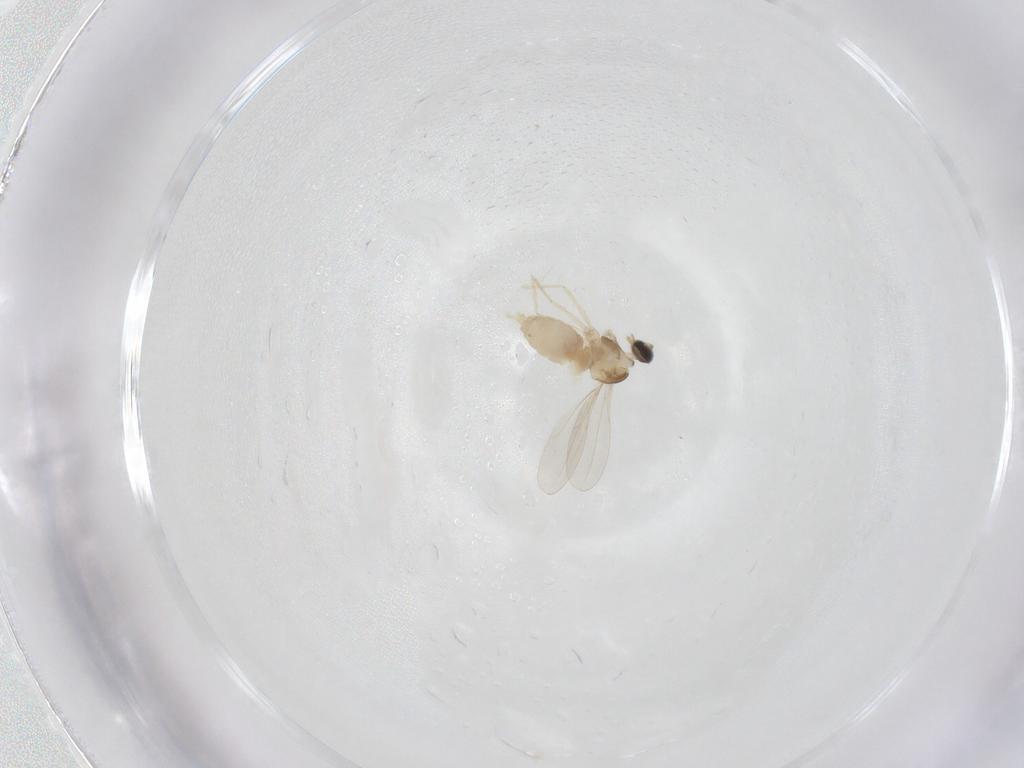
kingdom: Animalia
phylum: Arthropoda
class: Insecta
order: Diptera
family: Cecidomyiidae
